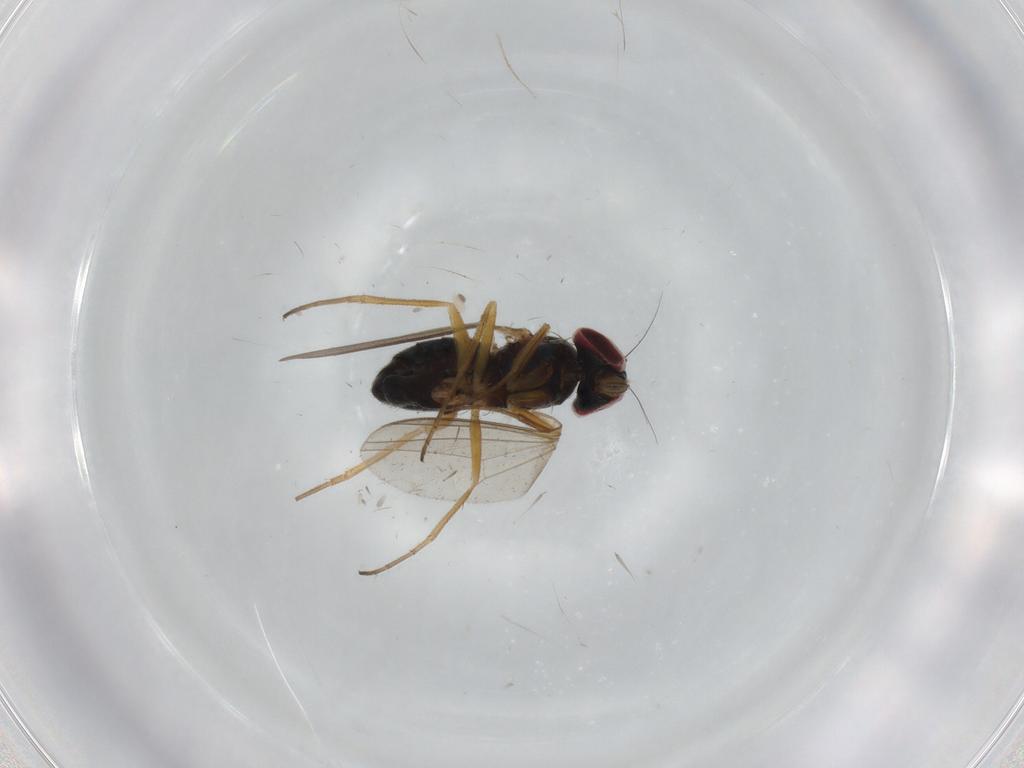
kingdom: Animalia
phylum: Arthropoda
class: Insecta
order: Diptera
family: Dolichopodidae
